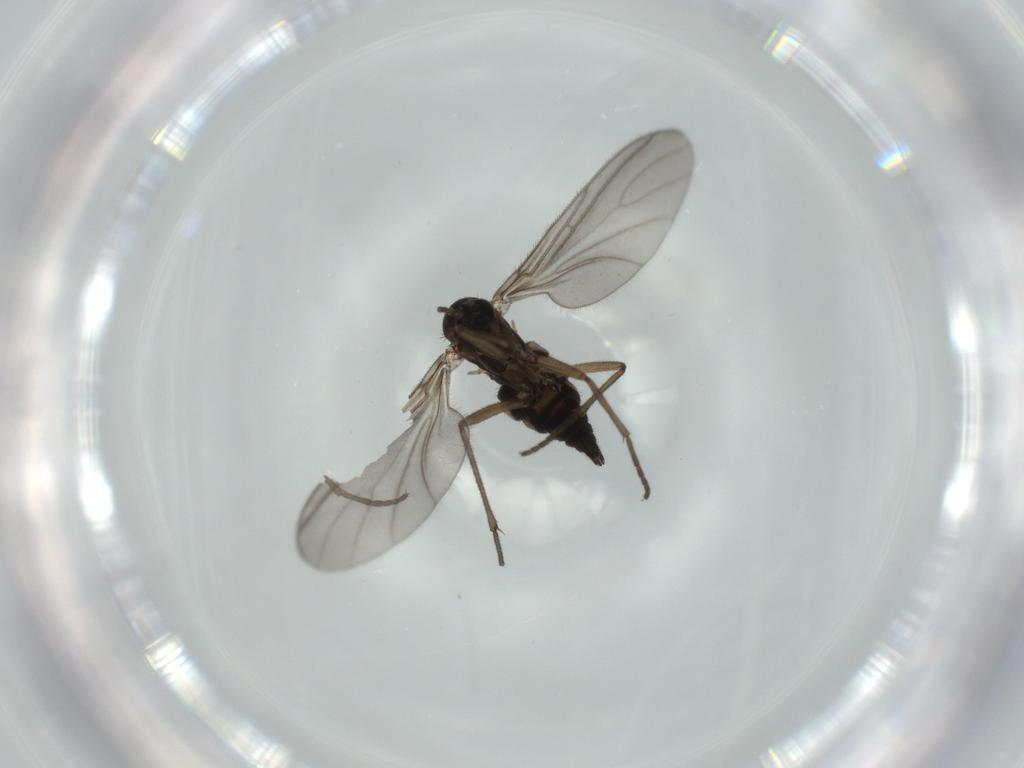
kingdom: Animalia
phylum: Arthropoda
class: Insecta
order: Diptera
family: Sciaridae
